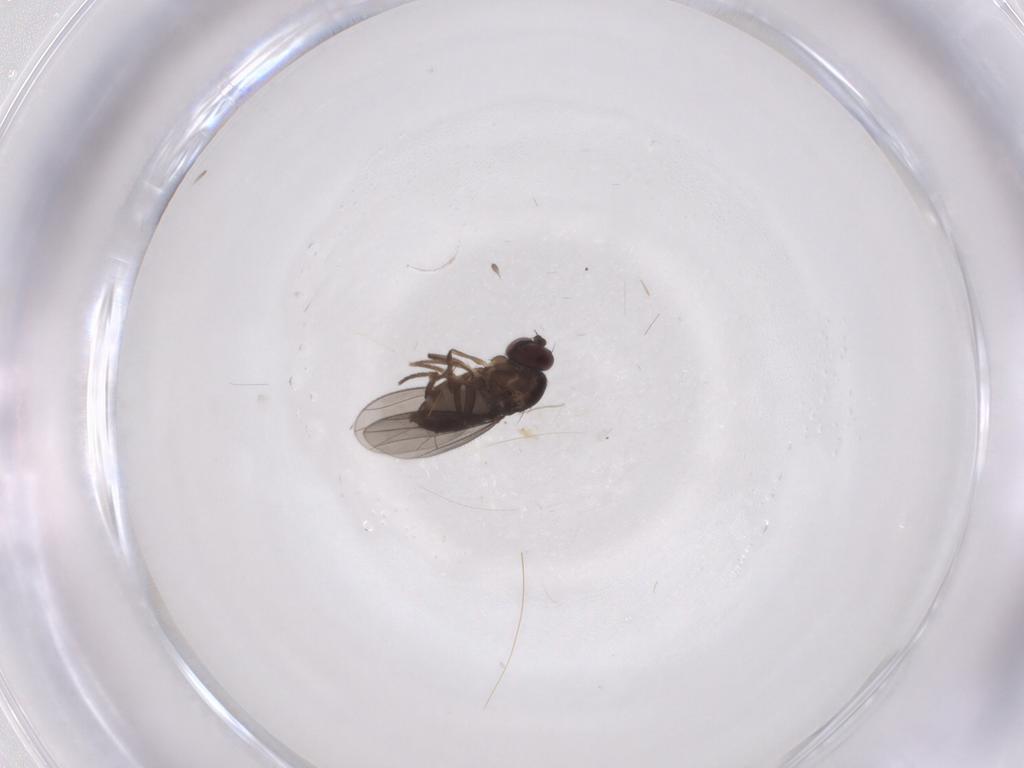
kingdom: Animalia
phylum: Arthropoda
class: Insecta
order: Diptera
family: Dolichopodidae
